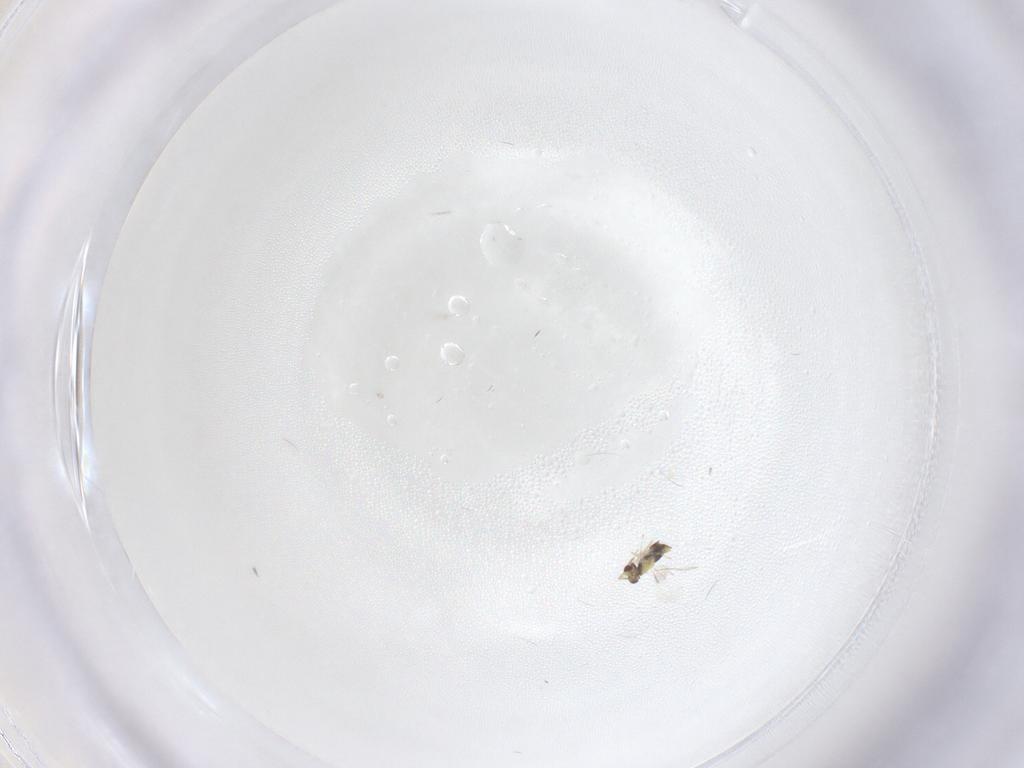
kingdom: Animalia
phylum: Arthropoda
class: Insecta
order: Hymenoptera
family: Aphelinidae
